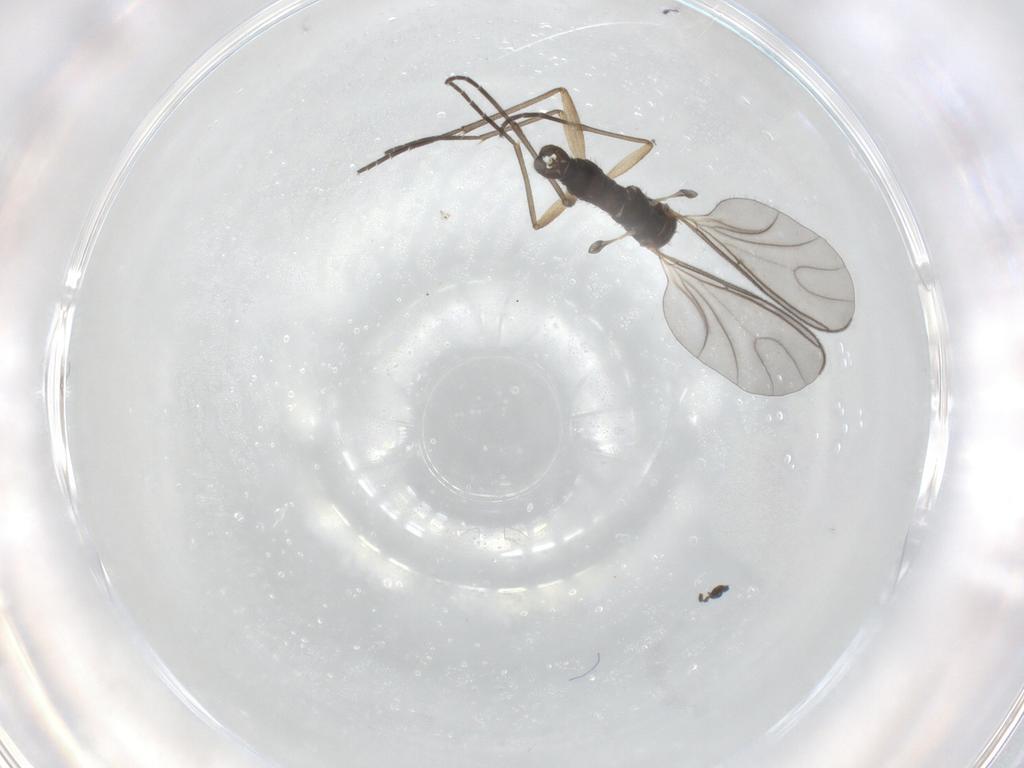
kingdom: Animalia
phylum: Arthropoda
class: Insecta
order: Diptera
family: Sciaridae
